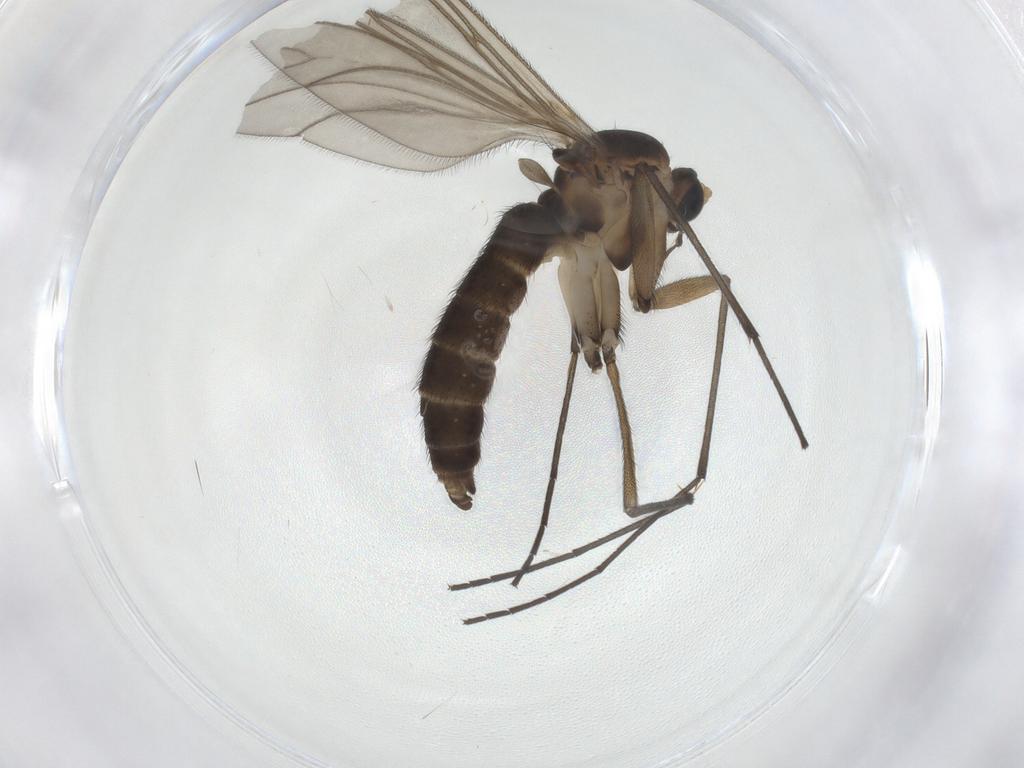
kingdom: Animalia
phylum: Arthropoda
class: Insecta
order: Diptera
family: Sciaridae
